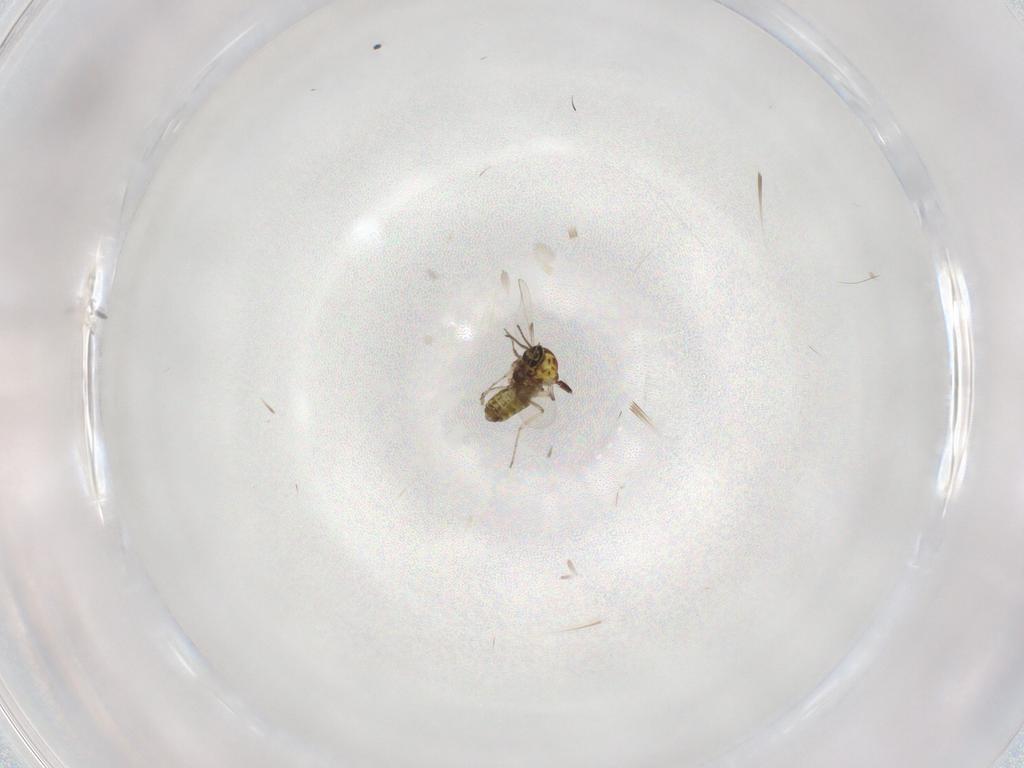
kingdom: Animalia
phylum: Arthropoda
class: Insecta
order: Diptera
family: Ceratopogonidae
